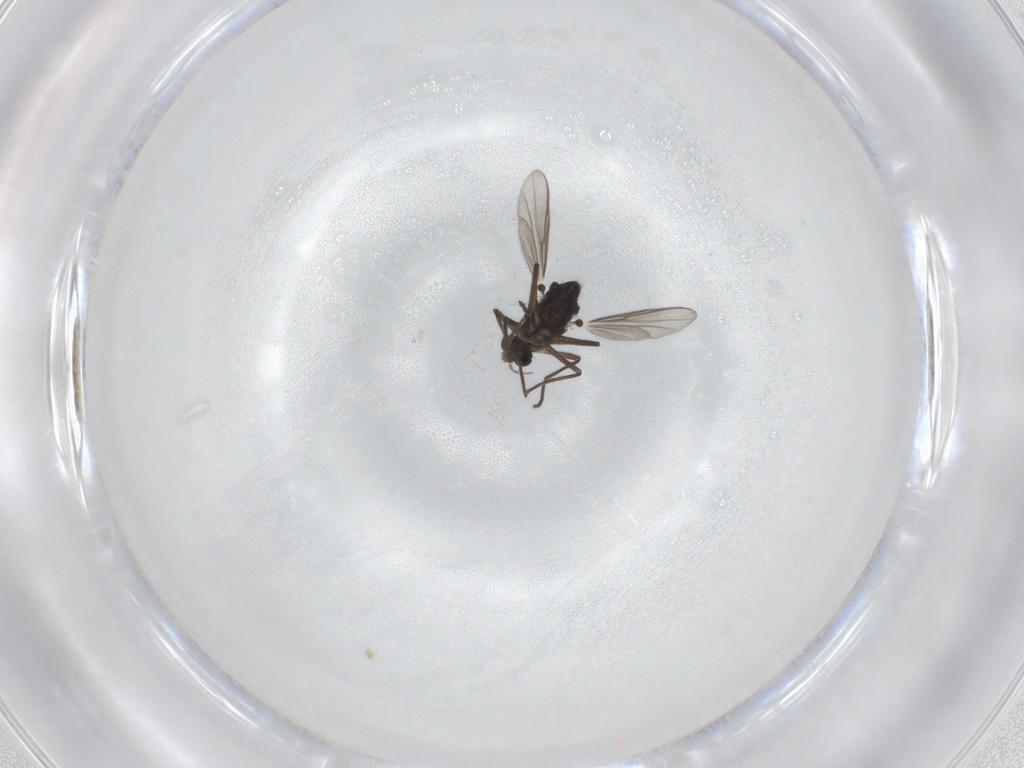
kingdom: Animalia
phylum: Arthropoda
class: Insecta
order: Diptera
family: Chironomidae
